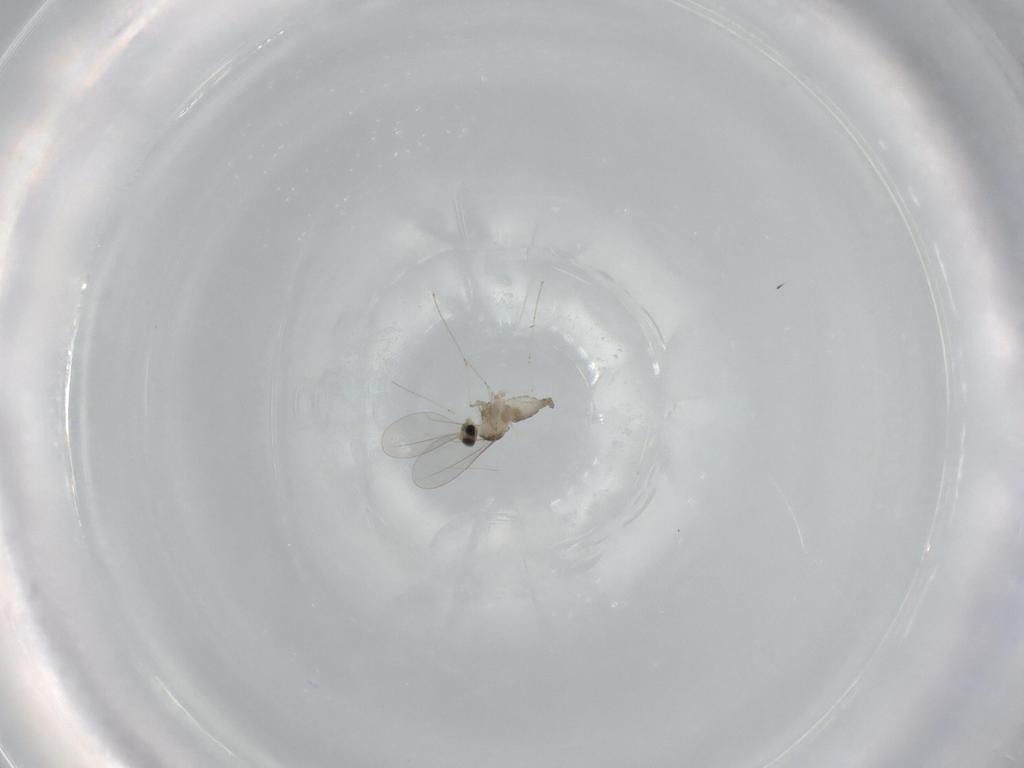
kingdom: Animalia
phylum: Arthropoda
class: Insecta
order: Diptera
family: Cecidomyiidae
